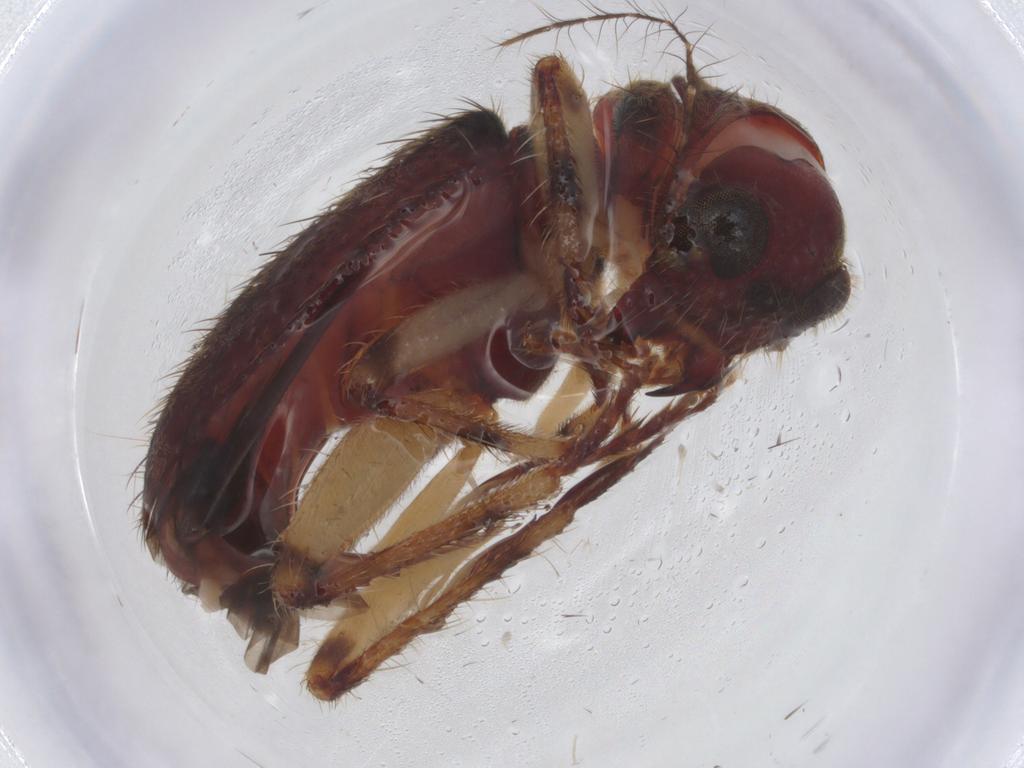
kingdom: Animalia
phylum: Arthropoda
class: Insecta
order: Coleoptera
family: Cleridae
